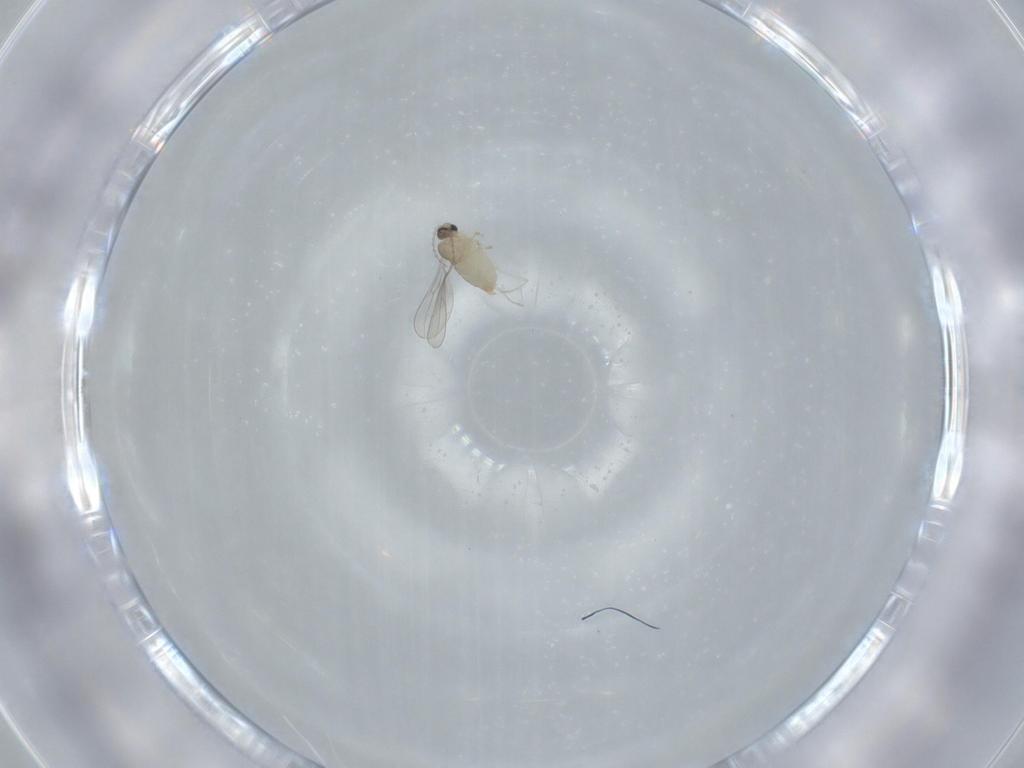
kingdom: Animalia
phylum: Arthropoda
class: Insecta
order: Diptera
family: Cecidomyiidae
